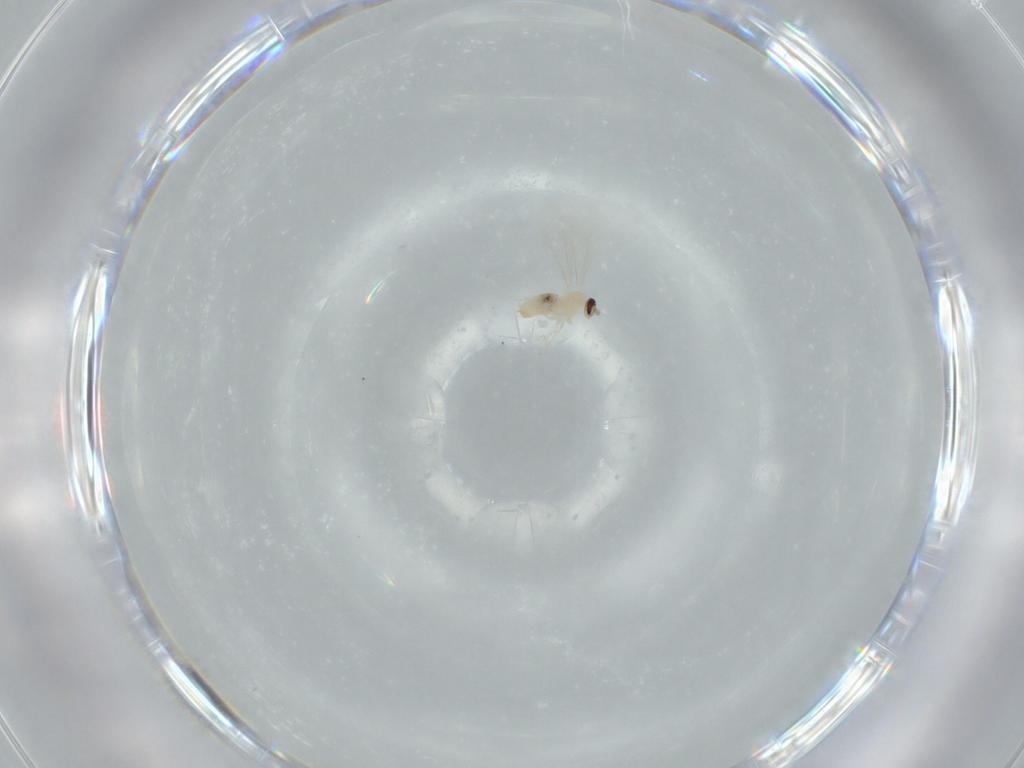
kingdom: Animalia
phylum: Arthropoda
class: Insecta
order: Diptera
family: Cecidomyiidae
